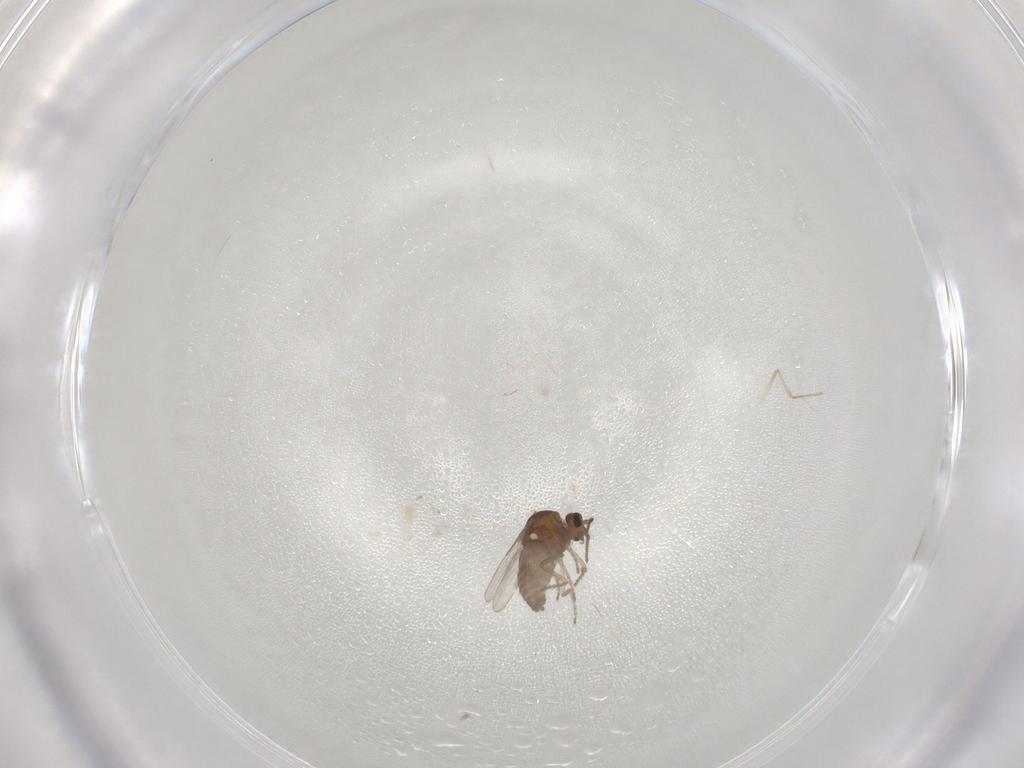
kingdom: Animalia
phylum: Arthropoda
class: Insecta
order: Diptera
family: Ceratopogonidae
